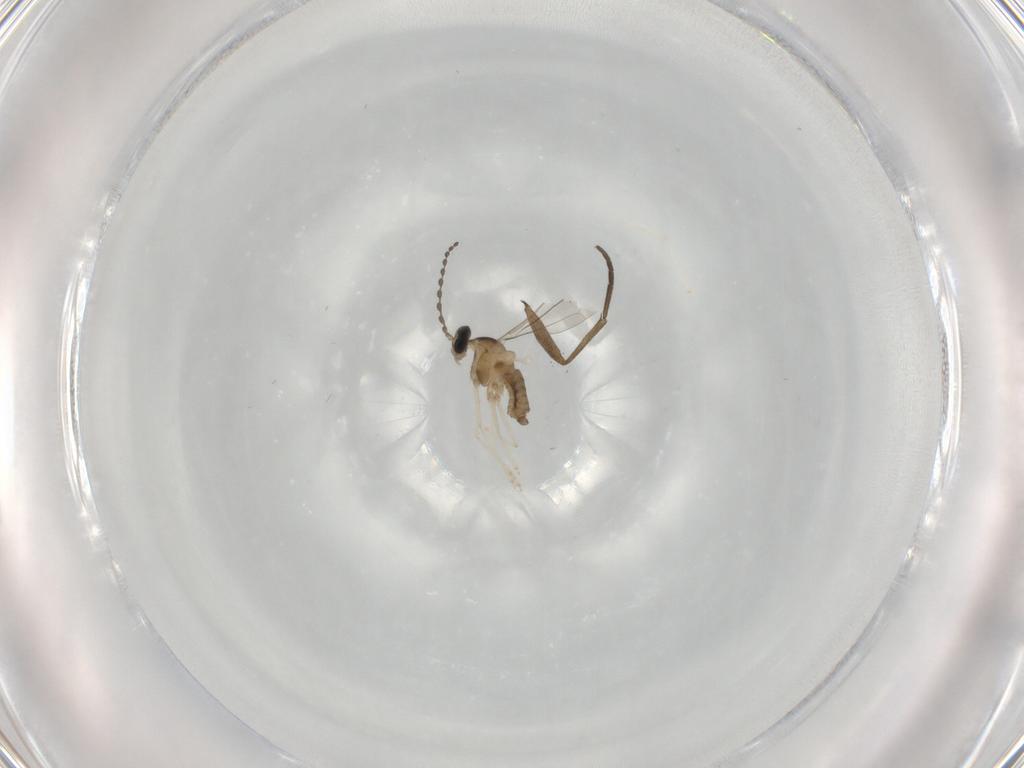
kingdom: Animalia
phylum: Arthropoda
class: Insecta
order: Diptera
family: Cecidomyiidae
